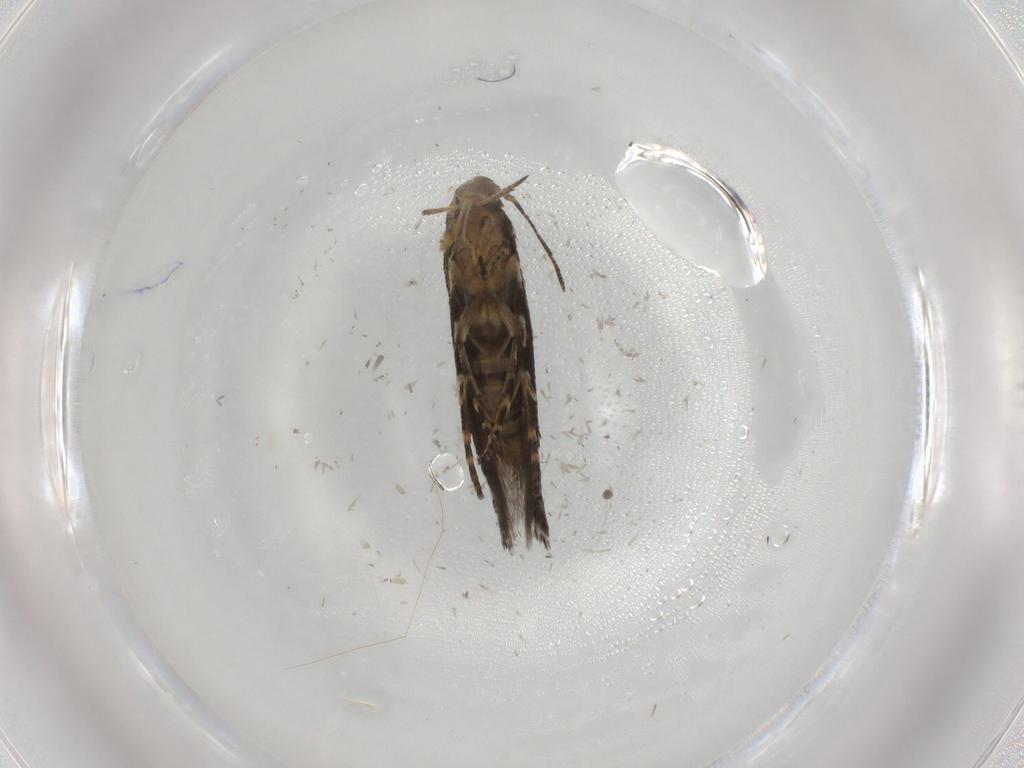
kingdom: Animalia
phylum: Arthropoda
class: Insecta
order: Lepidoptera
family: Momphidae
